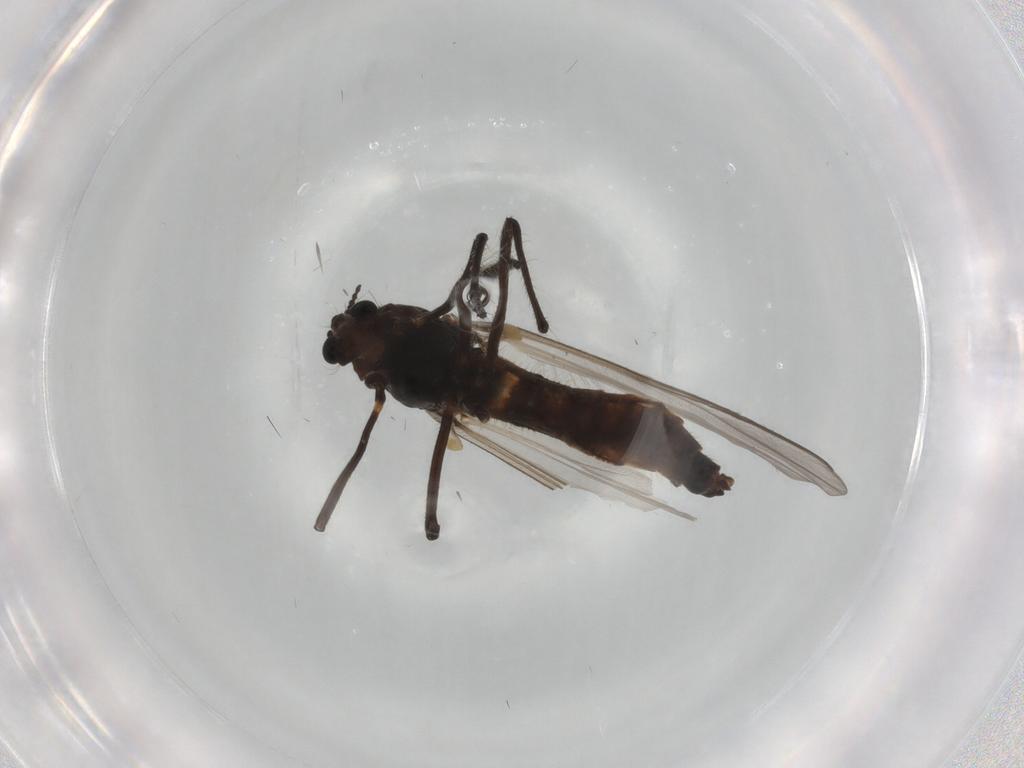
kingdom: Animalia
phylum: Arthropoda
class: Insecta
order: Diptera
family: Chironomidae
